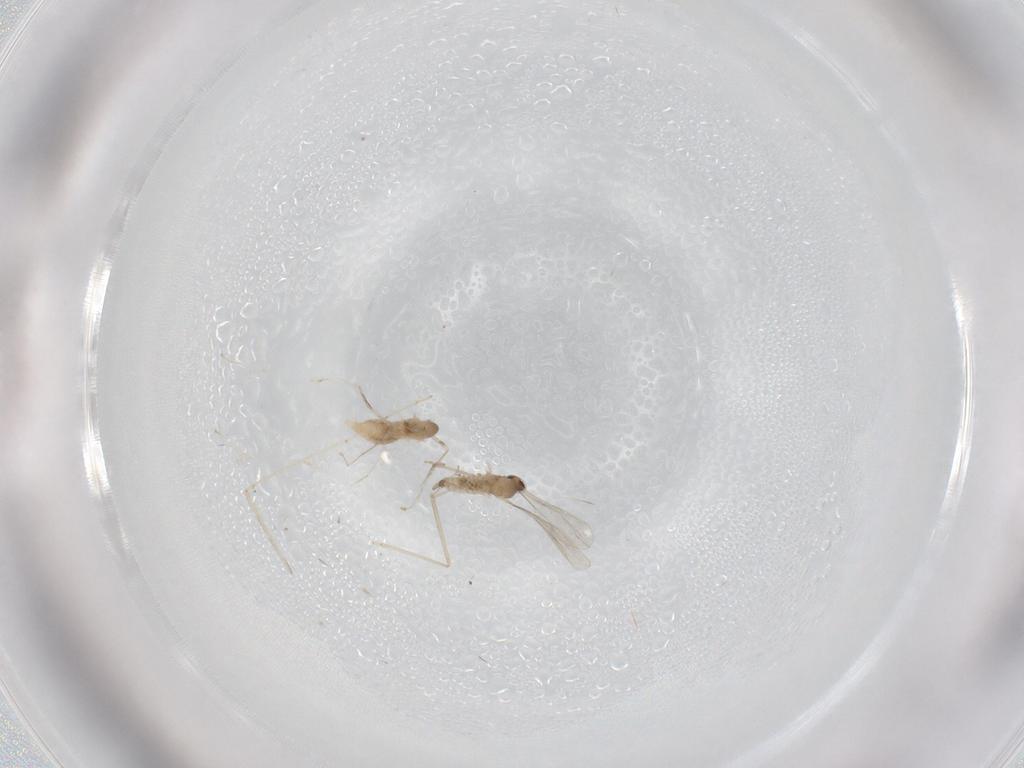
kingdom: Animalia
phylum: Arthropoda
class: Insecta
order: Diptera
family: Cecidomyiidae
